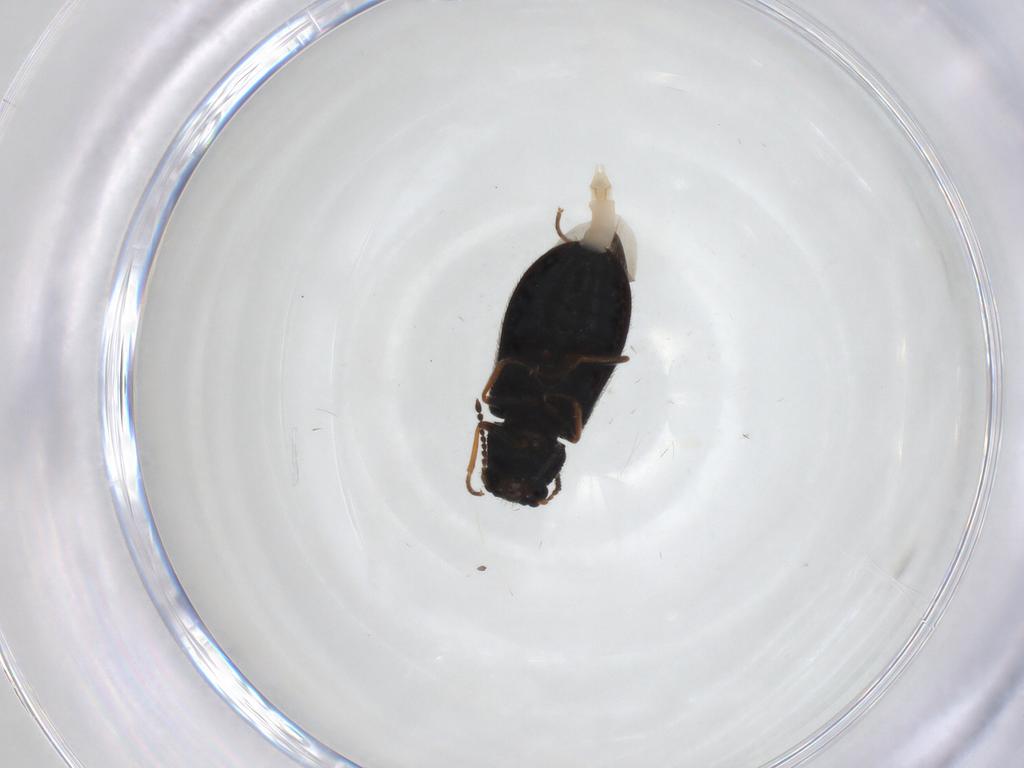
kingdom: Animalia
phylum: Arthropoda
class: Insecta
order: Coleoptera
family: Melyridae
